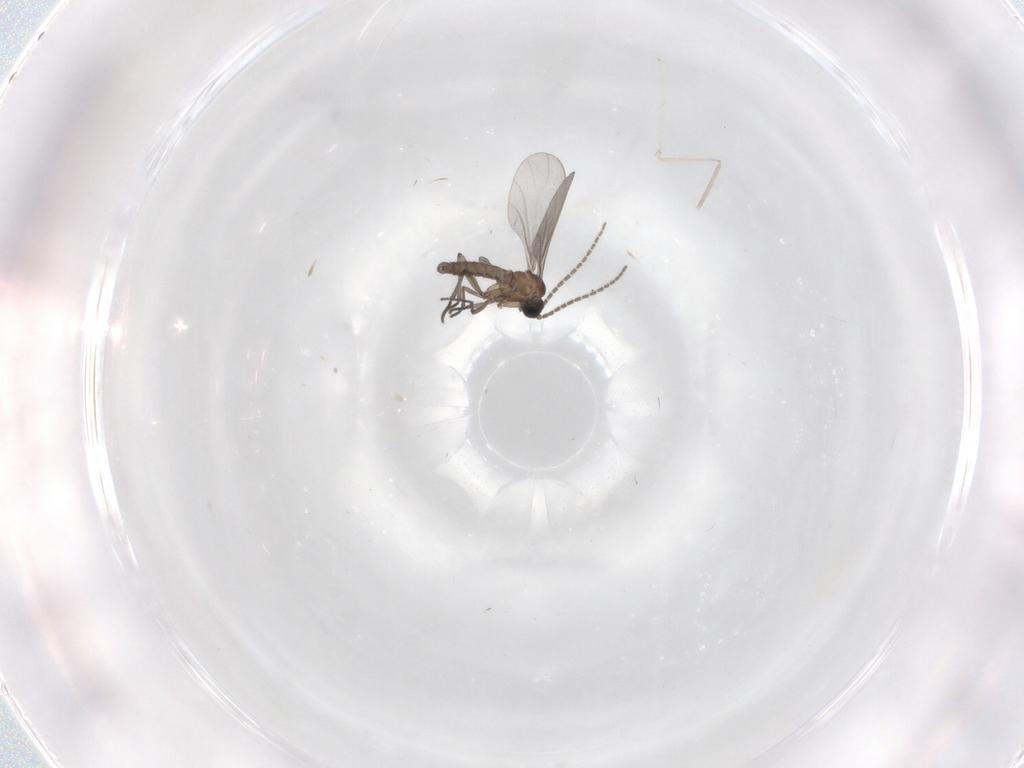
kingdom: Animalia
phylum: Arthropoda
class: Insecta
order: Diptera
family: Sciaridae
